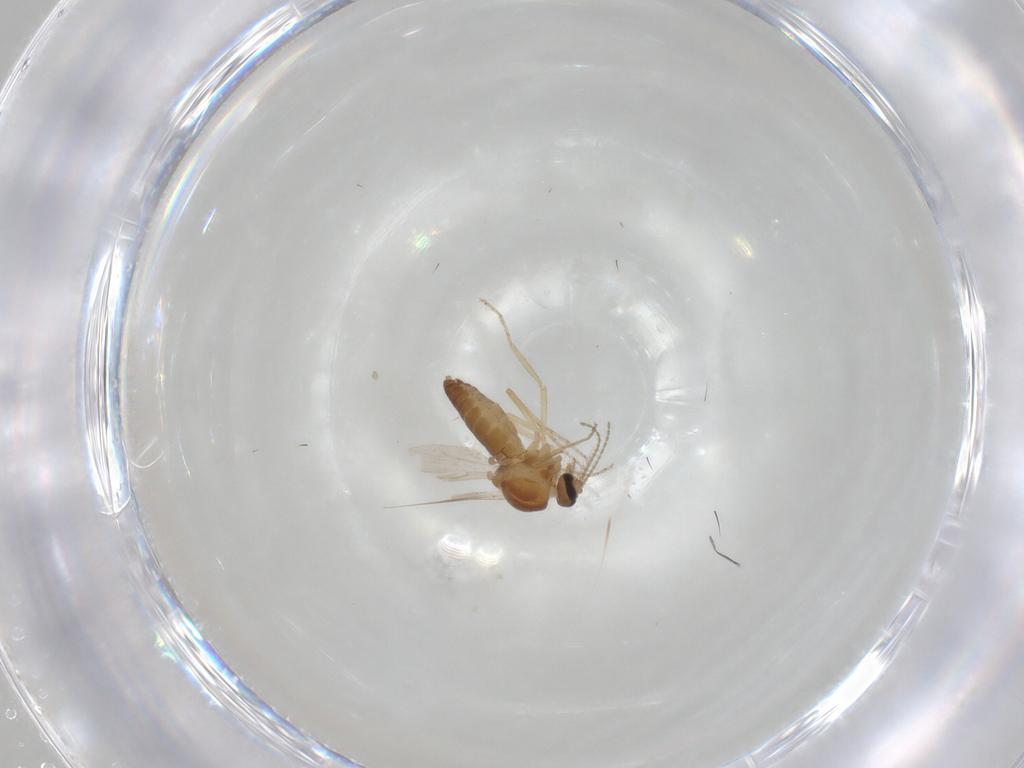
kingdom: Animalia
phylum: Arthropoda
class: Insecta
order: Diptera
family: Ceratopogonidae
